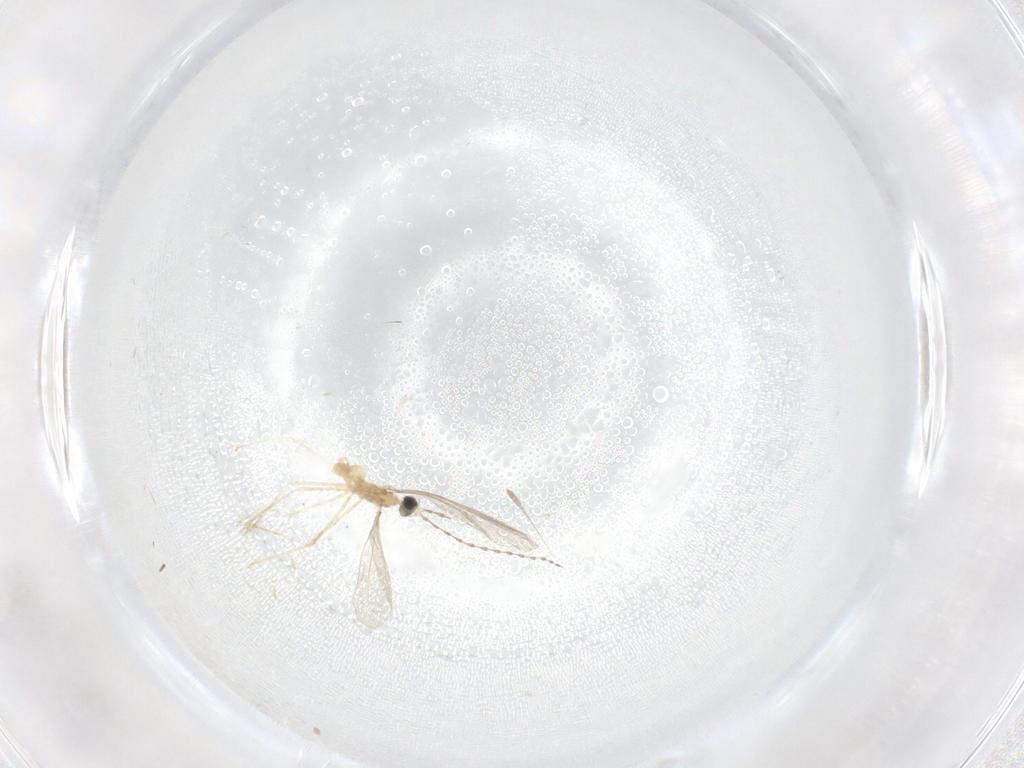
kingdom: Animalia
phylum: Arthropoda
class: Insecta
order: Diptera
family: Cecidomyiidae
